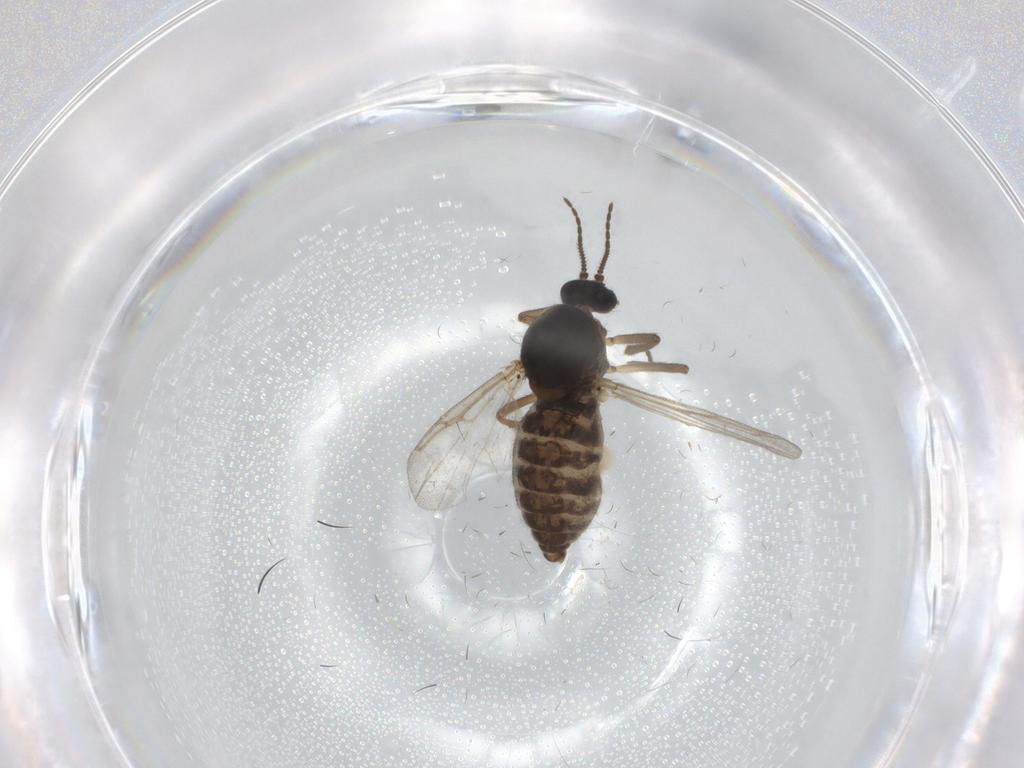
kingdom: Animalia
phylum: Arthropoda
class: Insecta
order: Diptera
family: Ceratopogonidae
